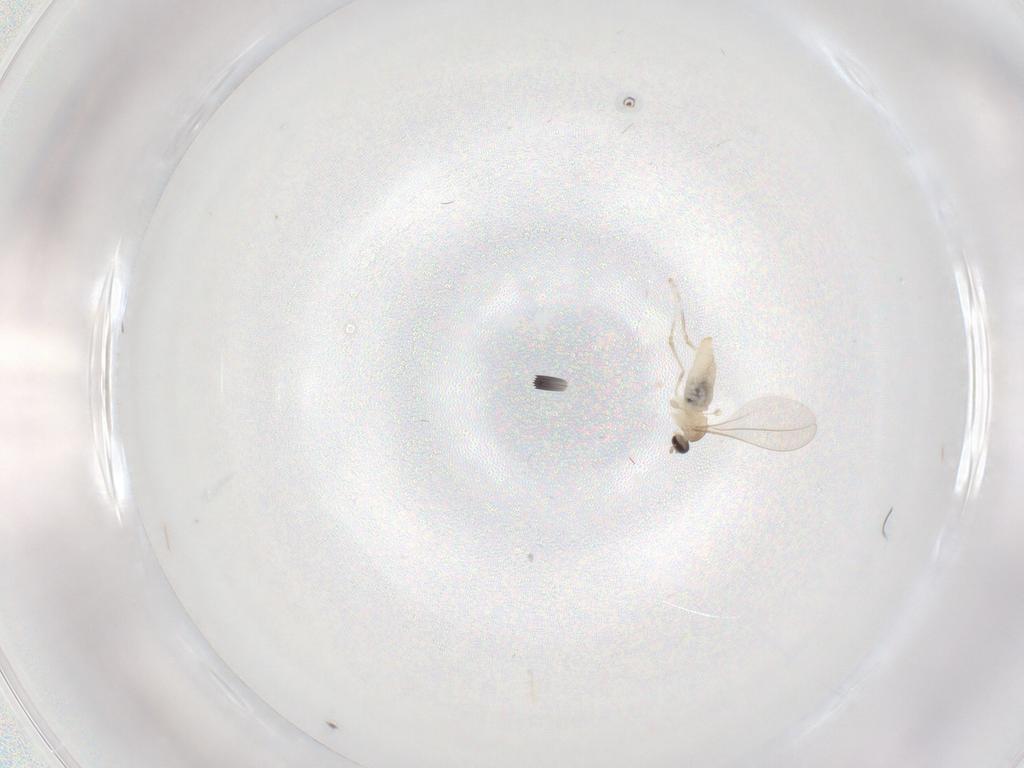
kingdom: Animalia
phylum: Arthropoda
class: Insecta
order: Diptera
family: Cecidomyiidae
